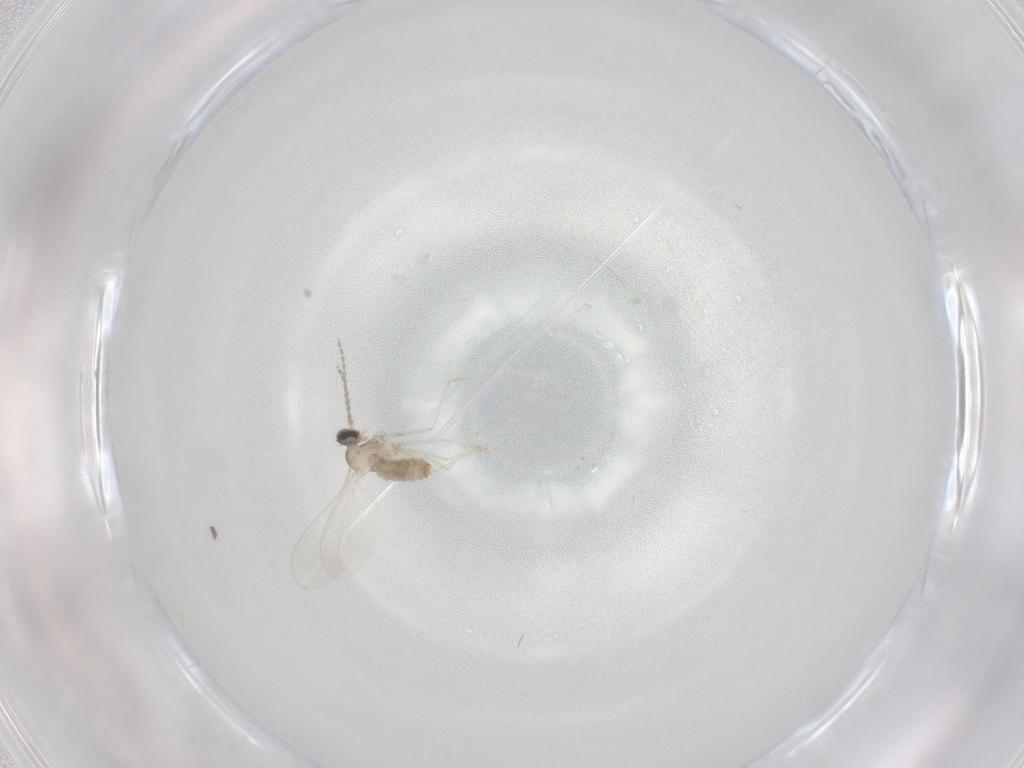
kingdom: Animalia
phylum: Arthropoda
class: Insecta
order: Diptera
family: Cecidomyiidae
